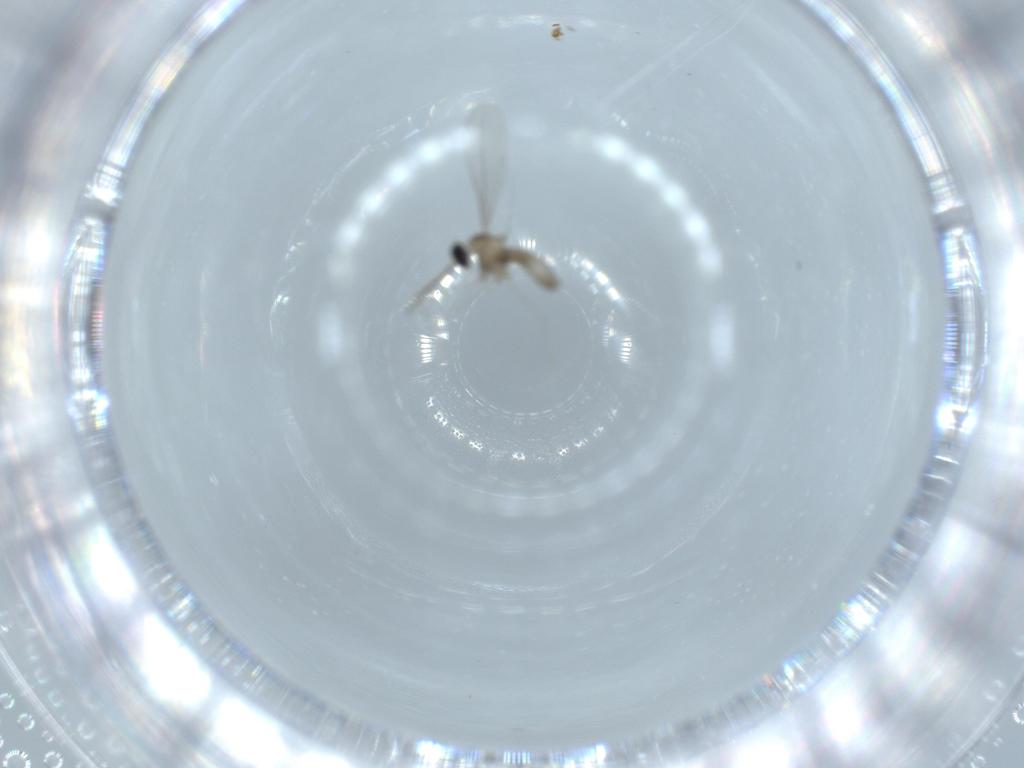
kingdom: Animalia
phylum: Arthropoda
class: Insecta
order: Diptera
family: Cecidomyiidae
